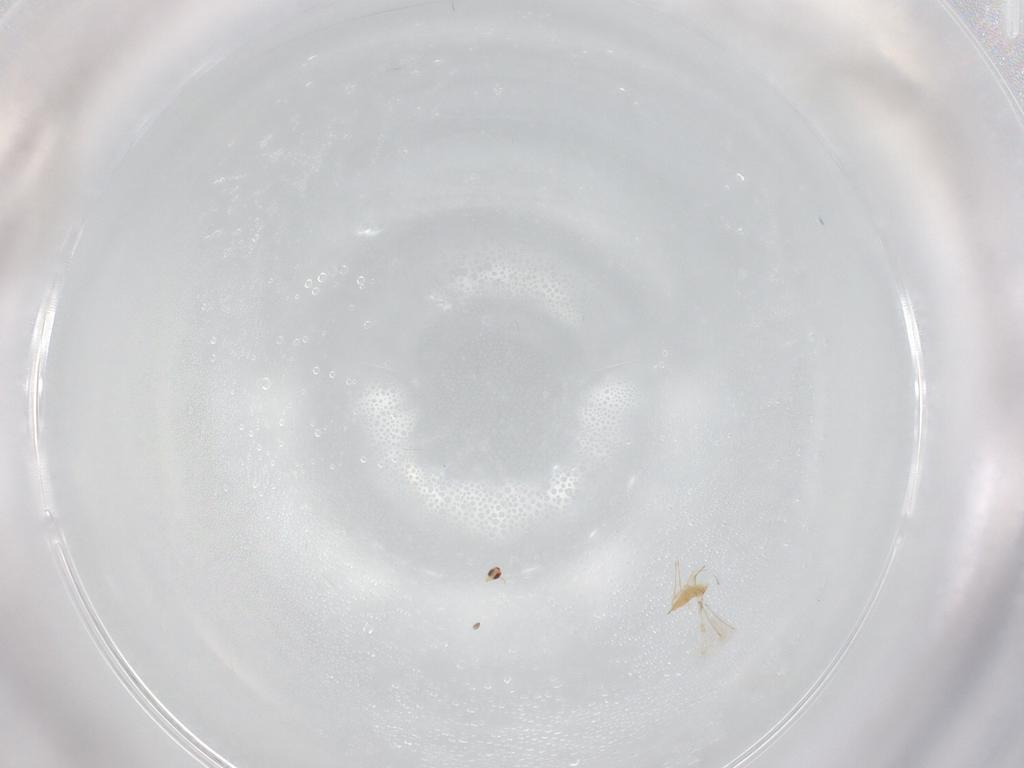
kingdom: Animalia
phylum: Arthropoda
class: Insecta
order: Hymenoptera
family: Mymaridae
